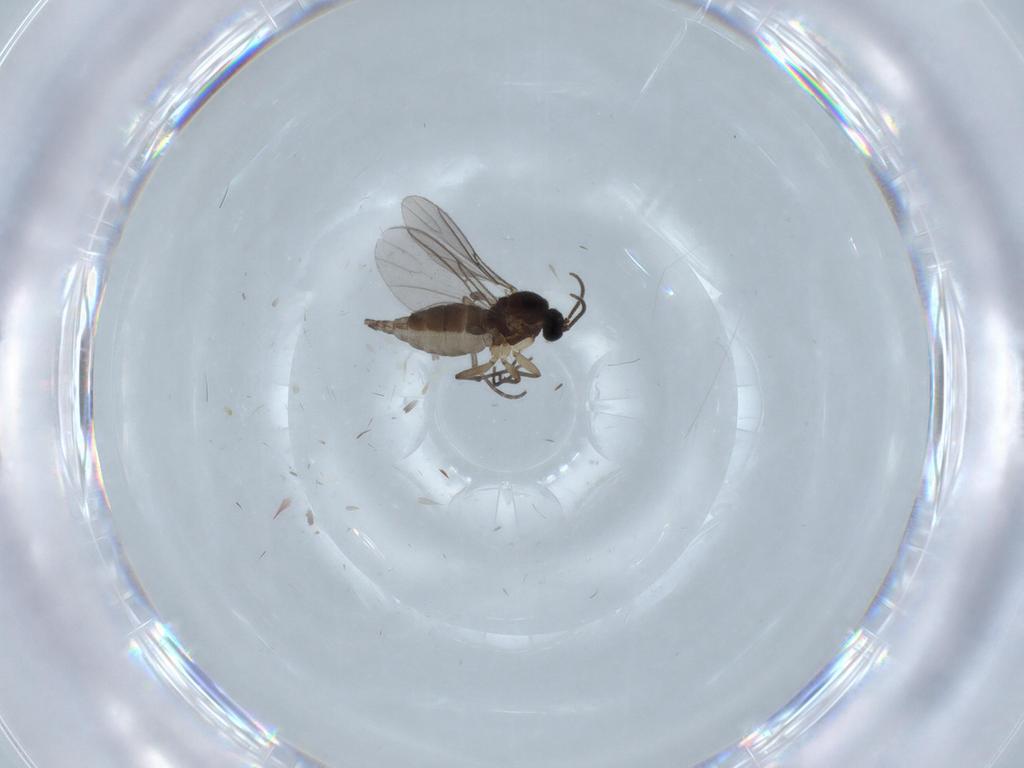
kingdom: Animalia
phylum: Arthropoda
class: Insecta
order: Diptera
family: Sciaridae
